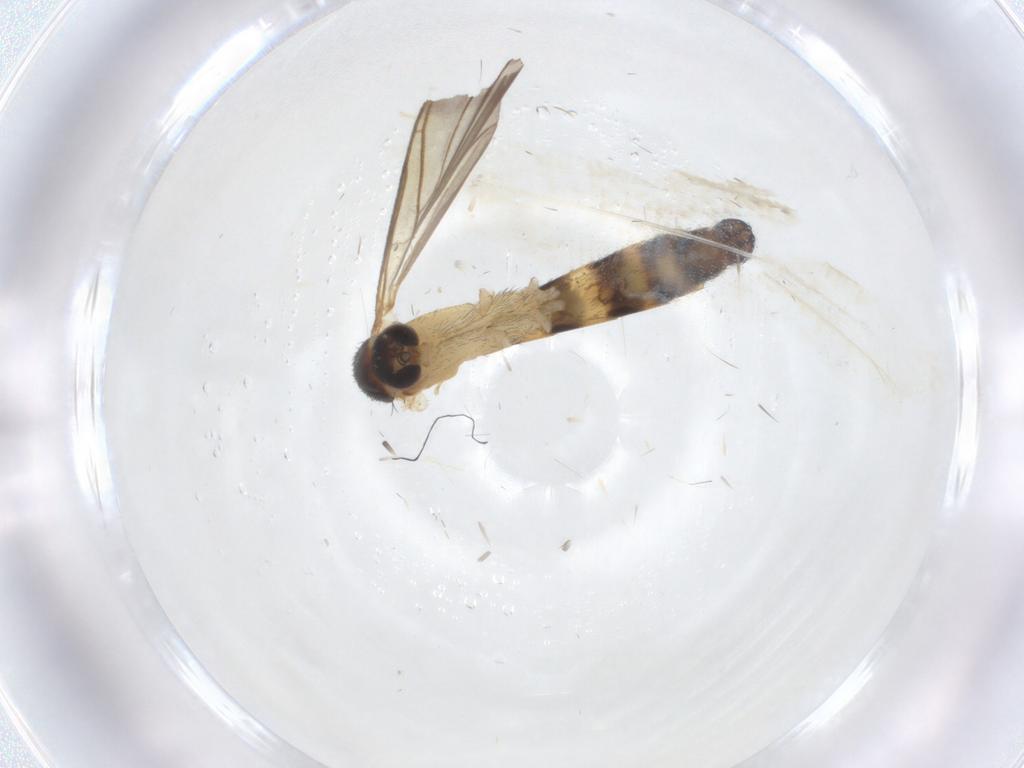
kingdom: Animalia
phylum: Arthropoda
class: Insecta
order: Diptera
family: Keroplatidae
